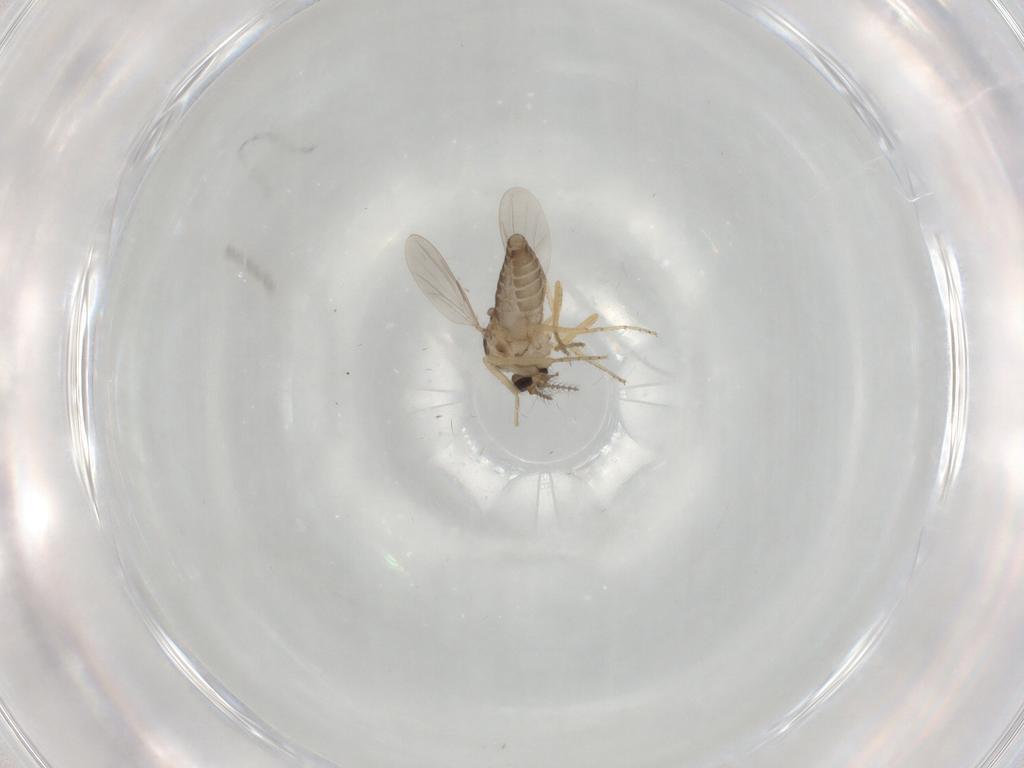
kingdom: Animalia
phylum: Arthropoda
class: Insecta
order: Diptera
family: Ceratopogonidae
